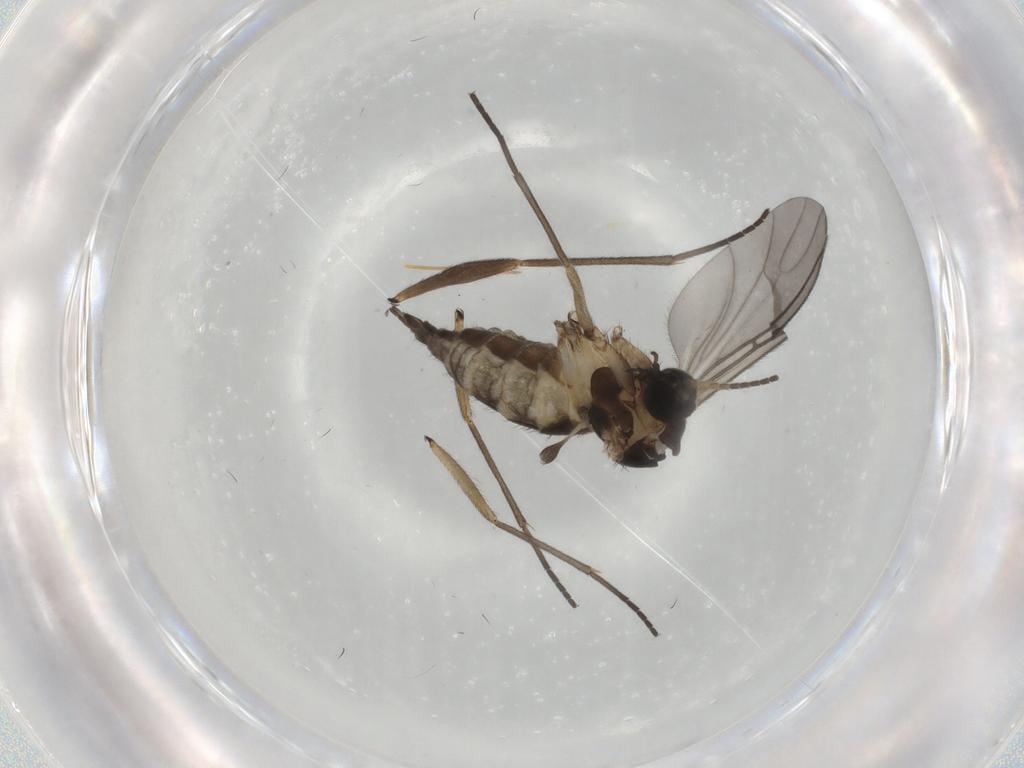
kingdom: Animalia
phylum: Arthropoda
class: Insecta
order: Diptera
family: Sciaridae
